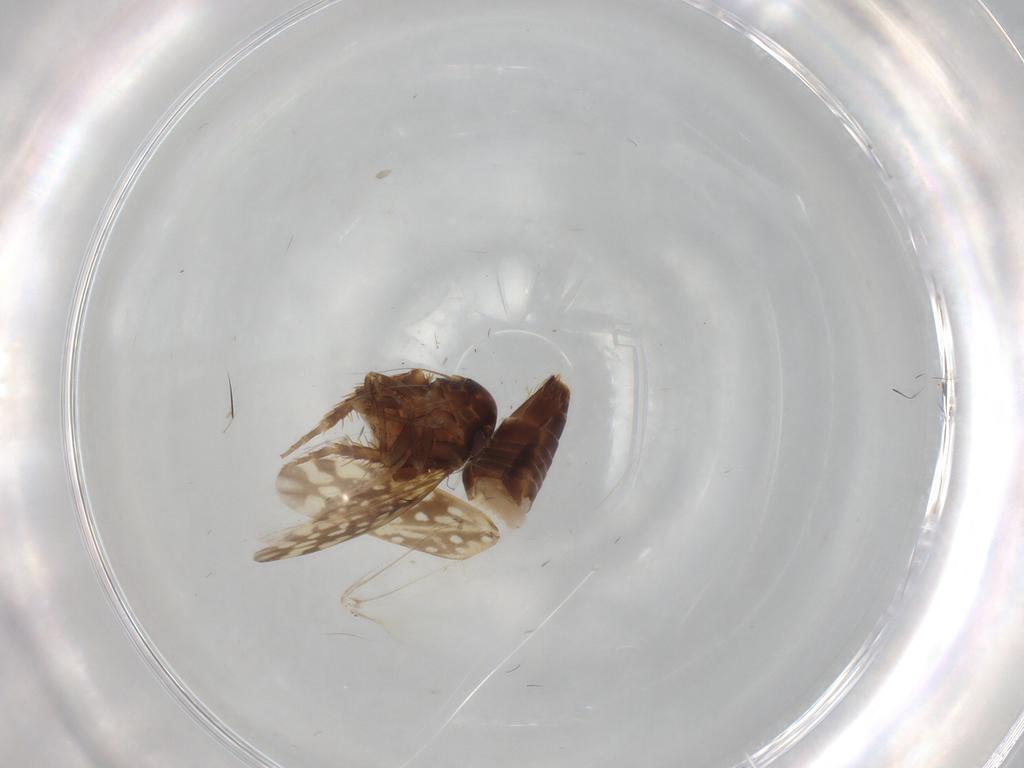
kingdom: Animalia
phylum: Arthropoda
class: Insecta
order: Hemiptera
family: Cicadellidae
